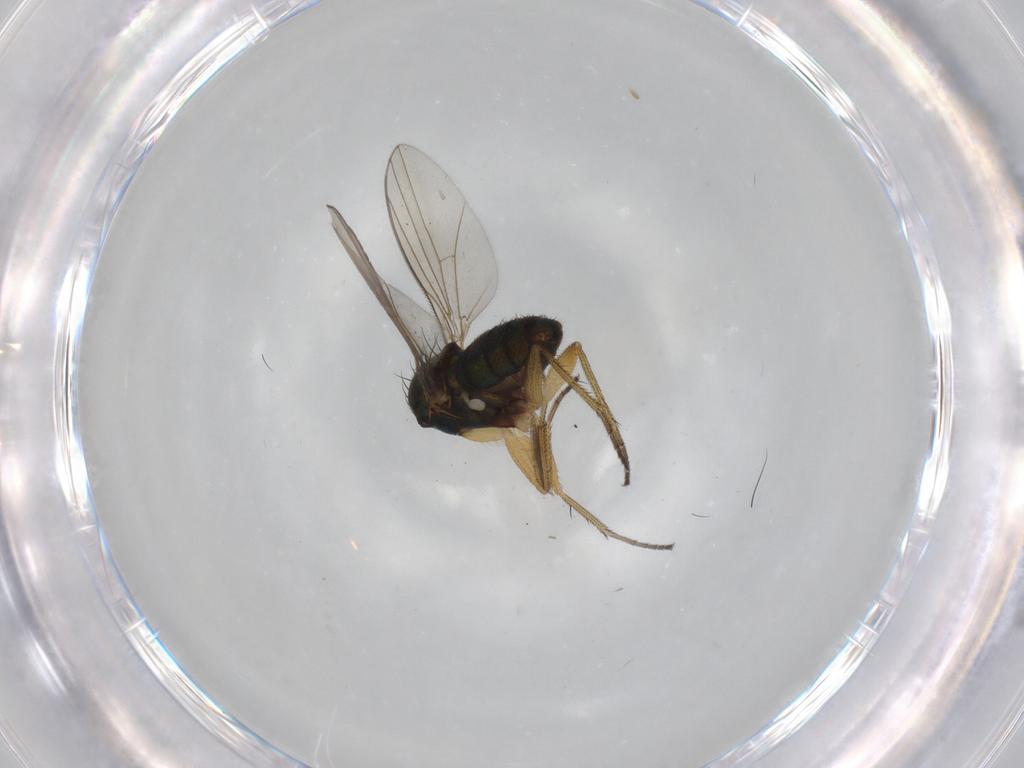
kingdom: Animalia
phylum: Arthropoda
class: Insecta
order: Diptera
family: Dolichopodidae
